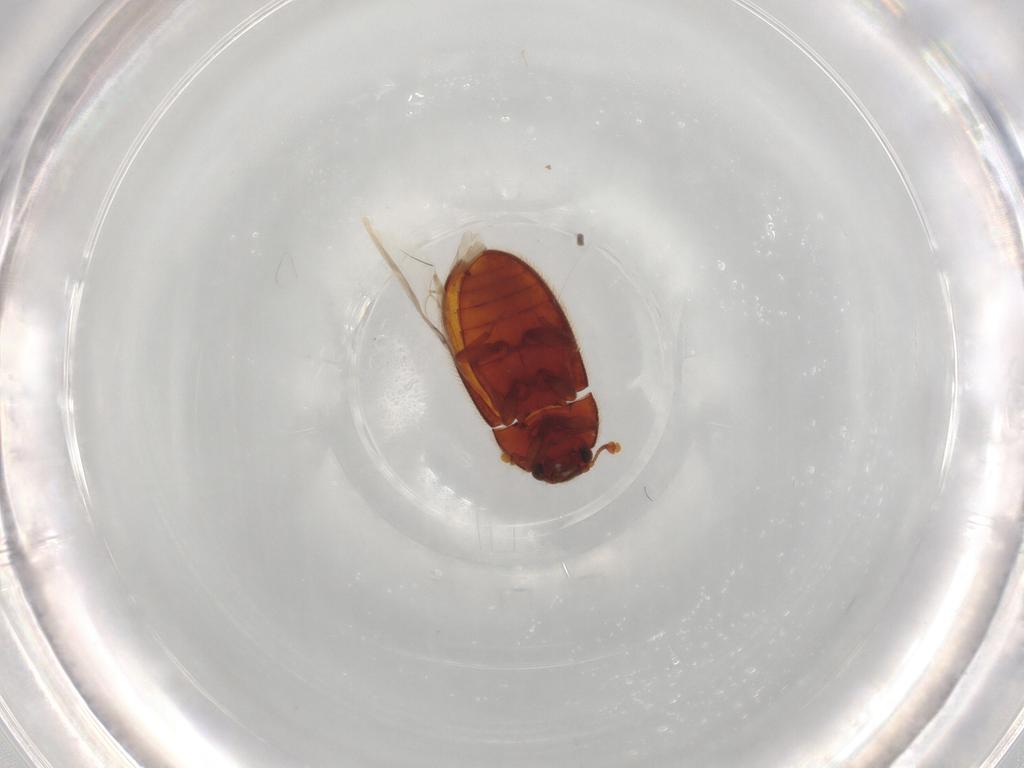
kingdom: Animalia
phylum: Arthropoda
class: Insecta
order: Coleoptera
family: Biphyllidae
